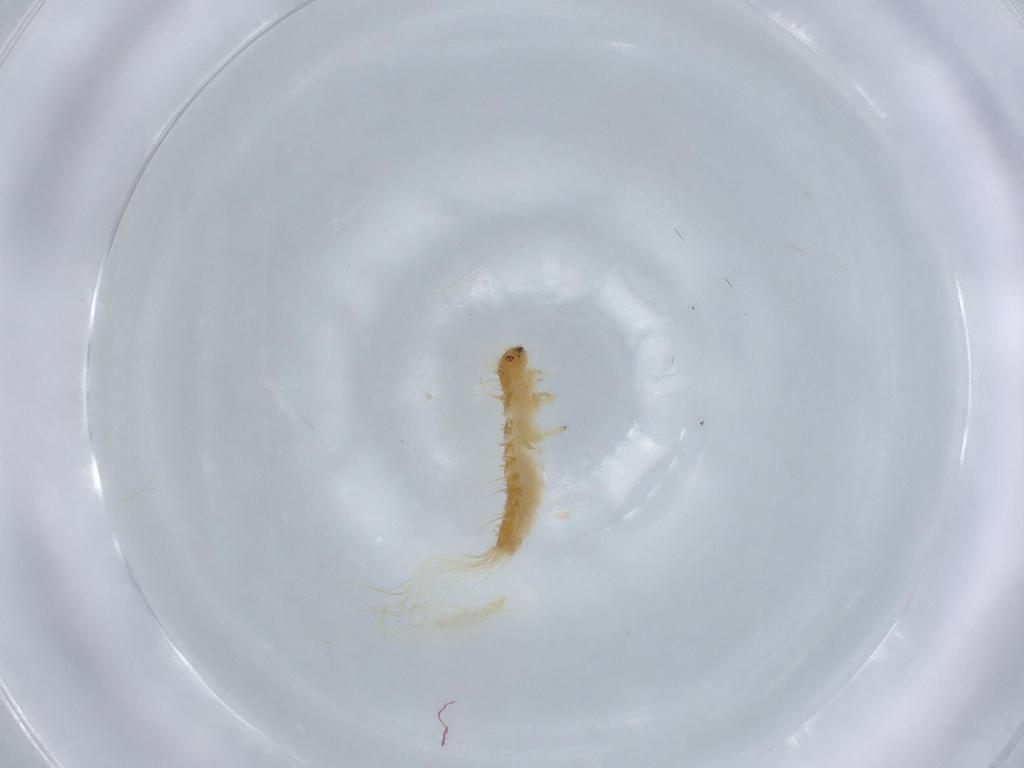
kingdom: Animalia
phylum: Arthropoda
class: Insecta
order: Coleoptera
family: Dermestidae
